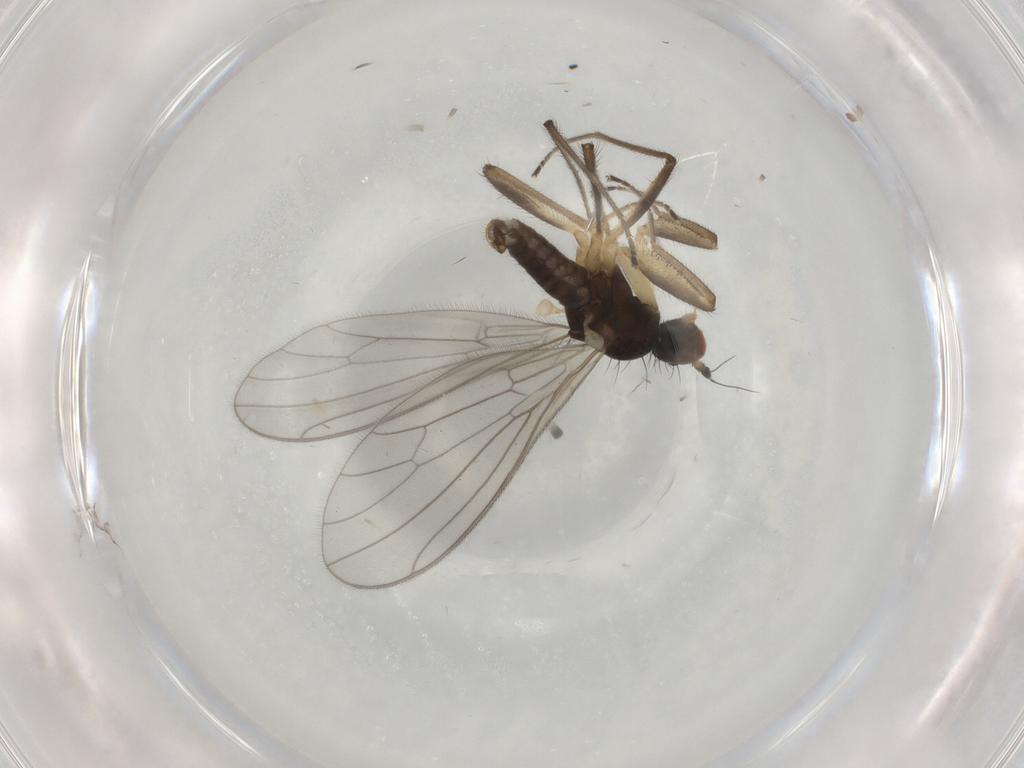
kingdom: Animalia
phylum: Arthropoda
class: Insecta
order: Diptera
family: Empididae
